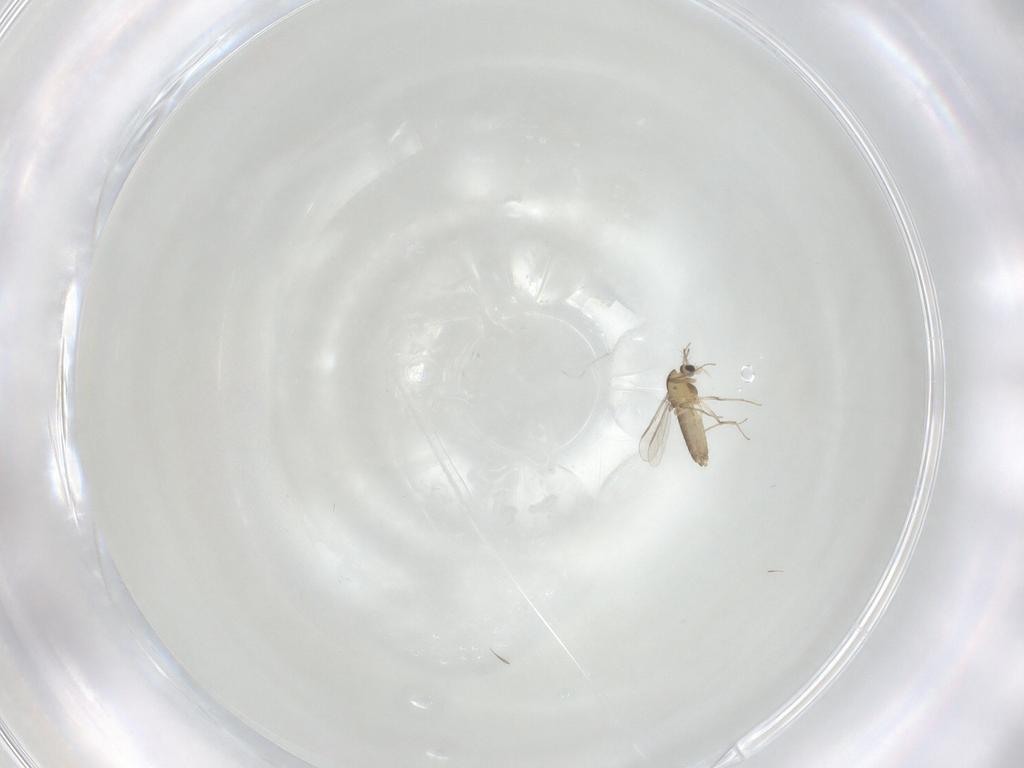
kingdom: Animalia
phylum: Arthropoda
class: Insecta
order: Diptera
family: Chironomidae
